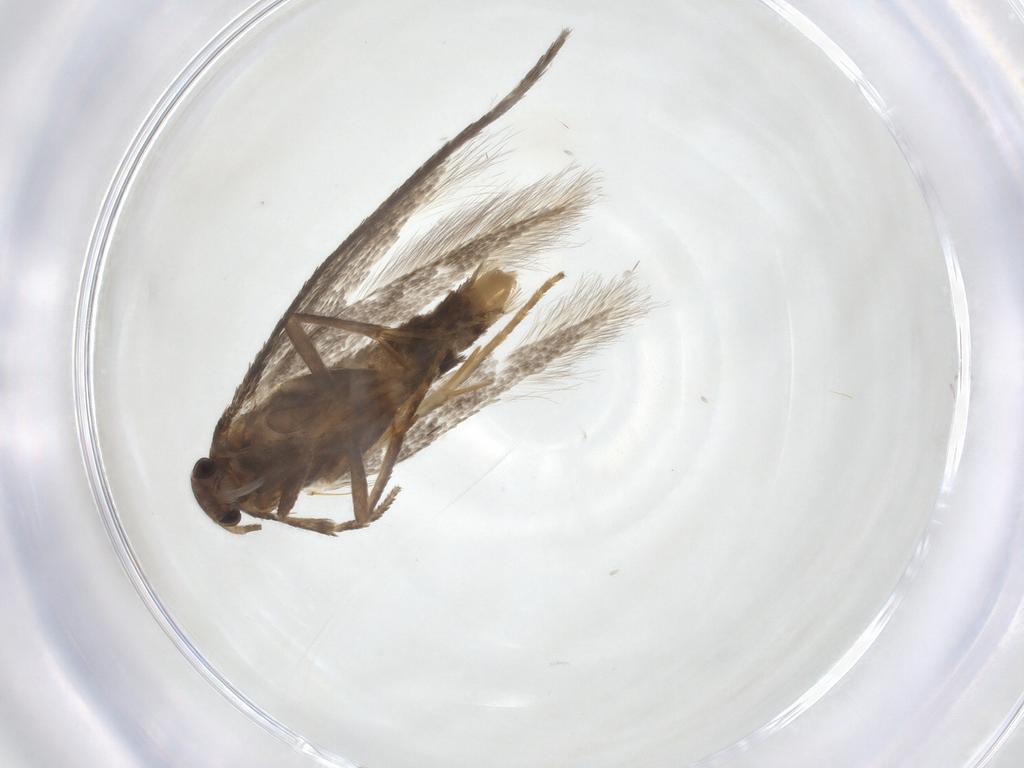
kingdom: Animalia
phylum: Arthropoda
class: Insecta
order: Lepidoptera
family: Elachistidae
